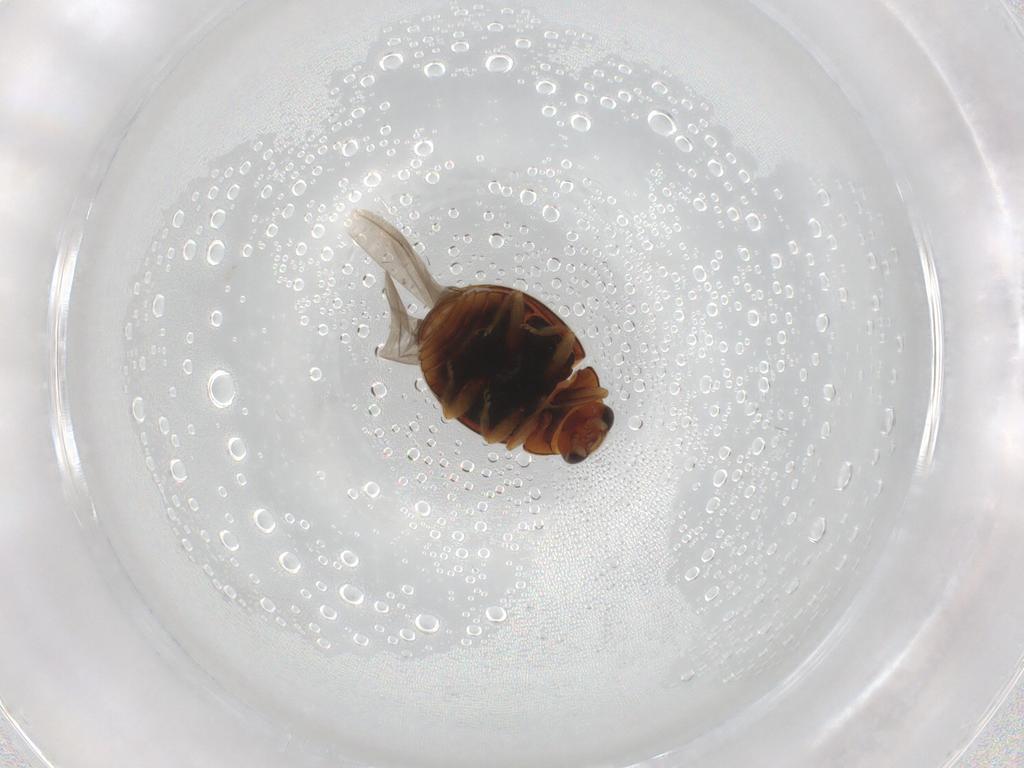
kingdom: Animalia
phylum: Arthropoda
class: Insecta
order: Coleoptera
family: Coccinellidae
